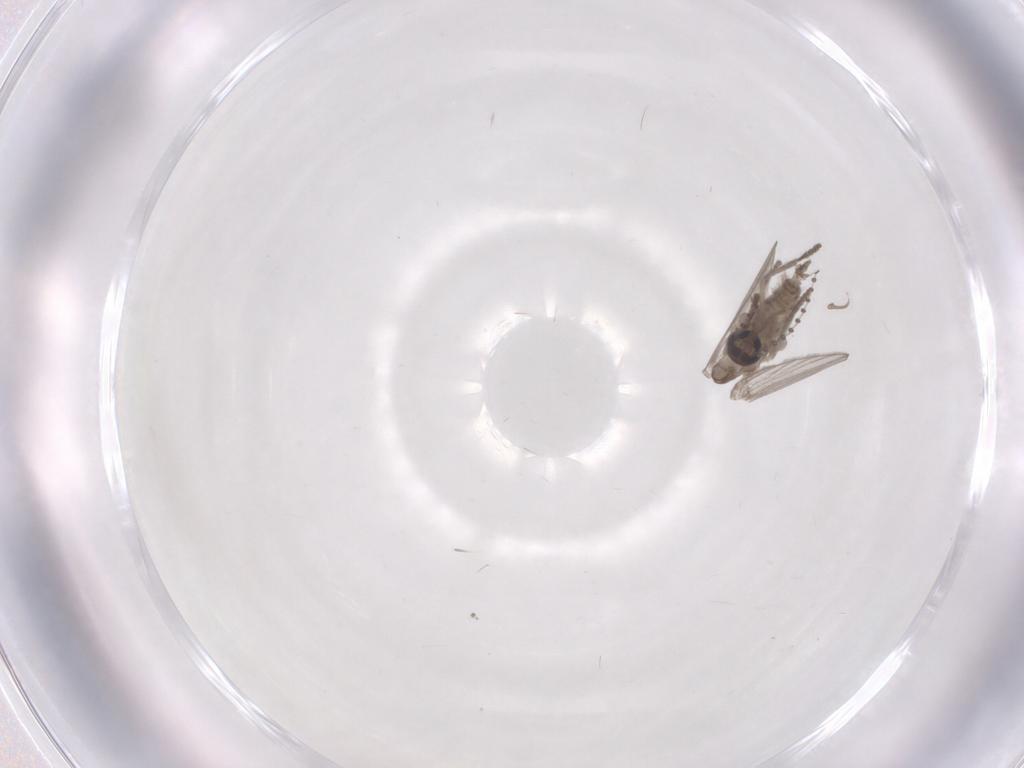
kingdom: Animalia
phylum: Arthropoda
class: Insecta
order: Diptera
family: Psychodidae
